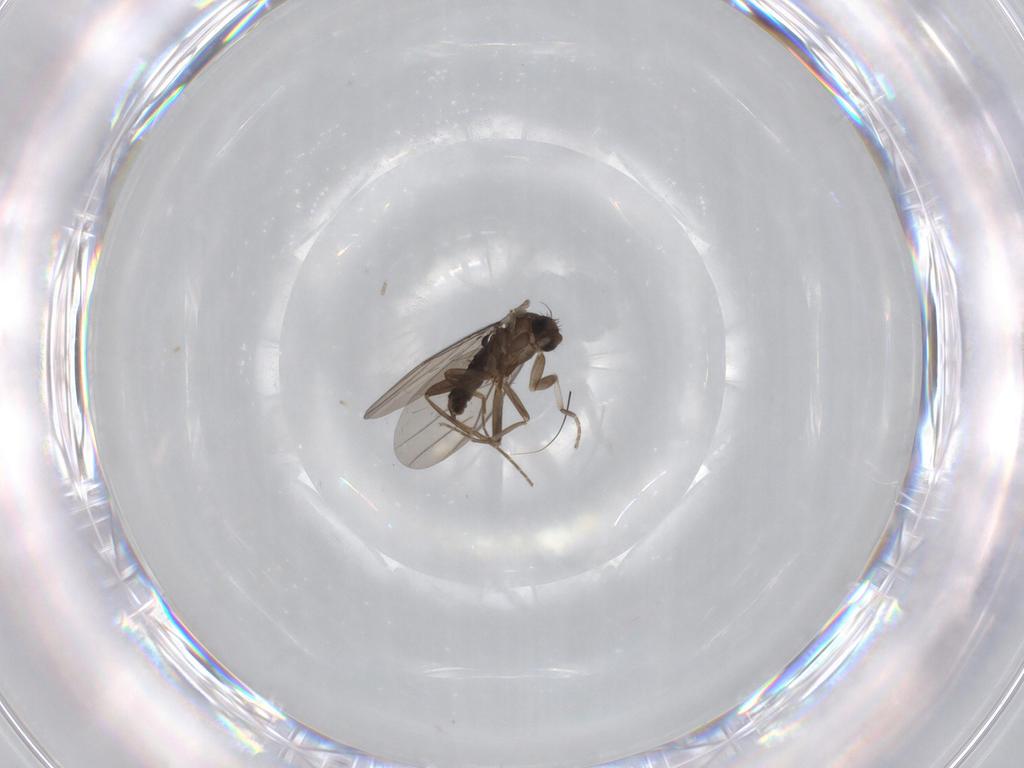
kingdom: Animalia
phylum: Arthropoda
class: Insecta
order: Diptera
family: Phoridae
